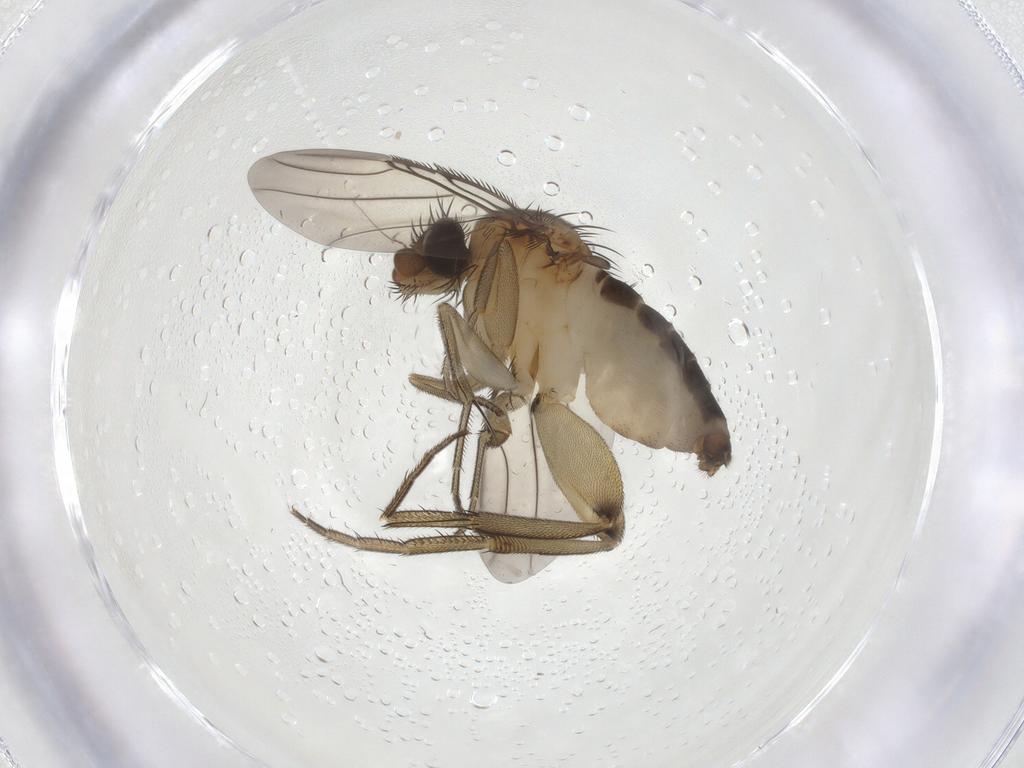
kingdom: Animalia
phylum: Arthropoda
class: Insecta
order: Diptera
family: Phoridae
